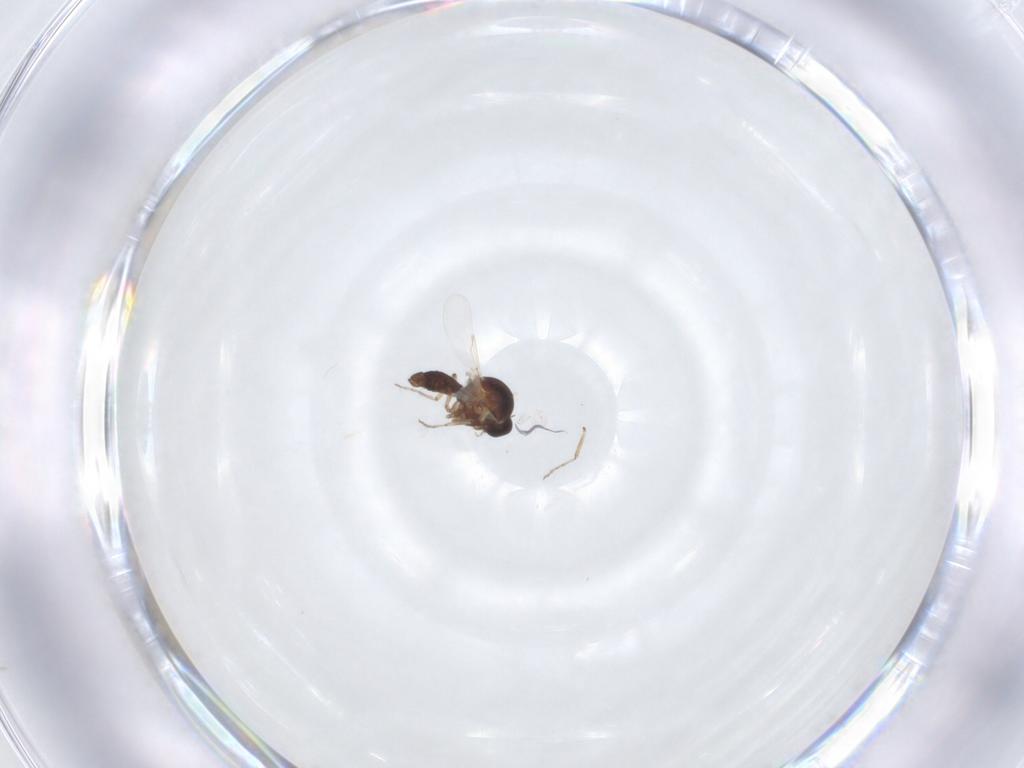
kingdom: Animalia
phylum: Arthropoda
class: Insecta
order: Diptera
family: Ceratopogonidae
